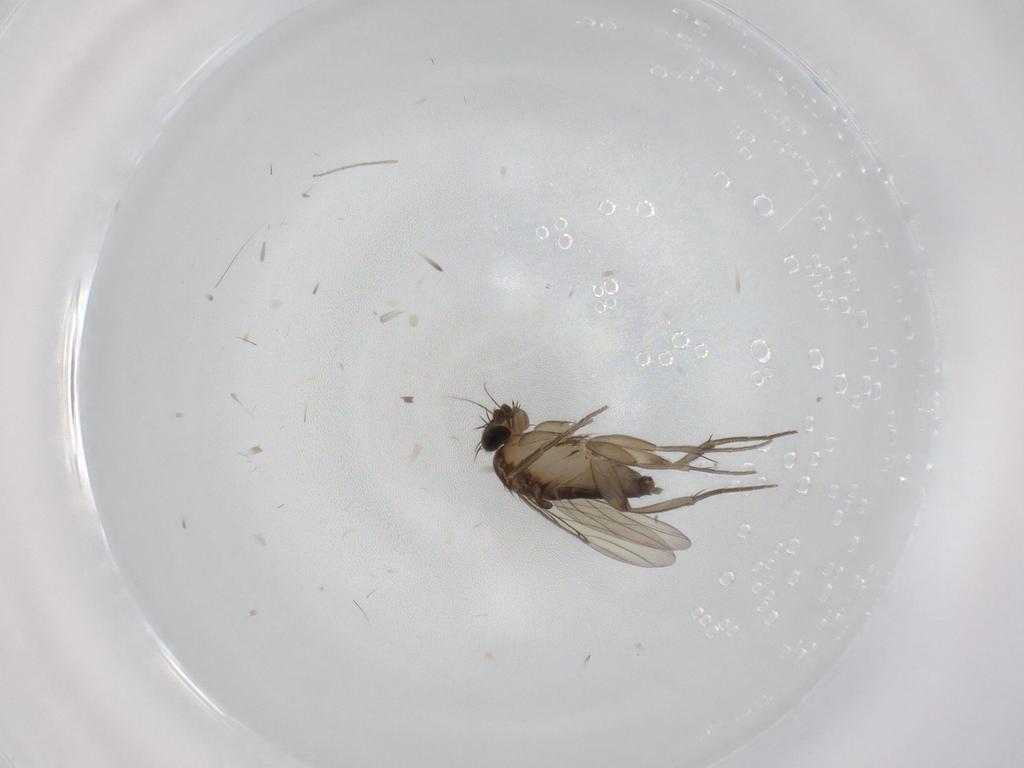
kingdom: Animalia
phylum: Arthropoda
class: Insecta
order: Diptera
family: Phoridae
